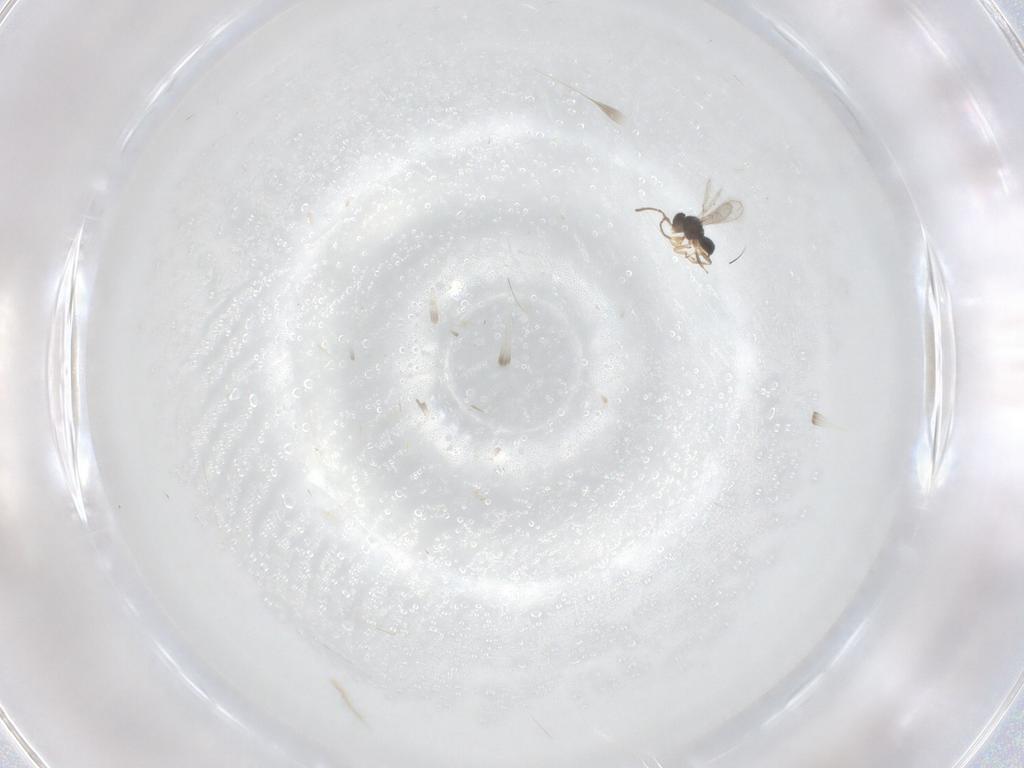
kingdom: Animalia
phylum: Arthropoda
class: Insecta
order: Hymenoptera
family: Scelionidae
